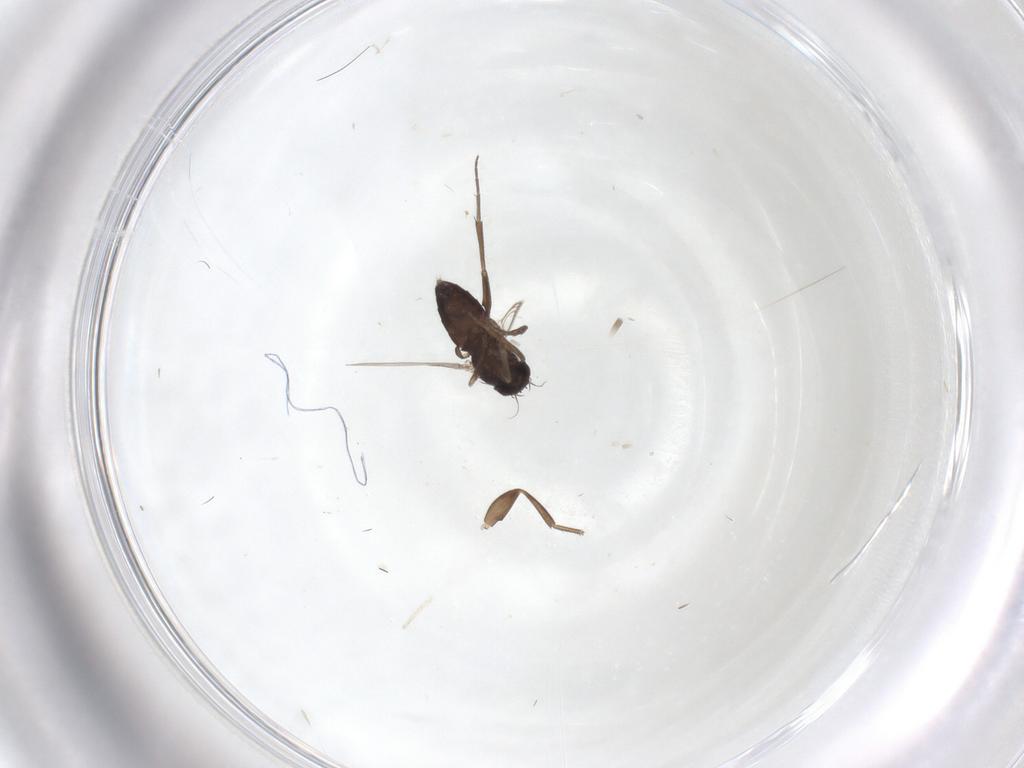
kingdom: Animalia
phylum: Arthropoda
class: Insecta
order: Diptera
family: Phoridae
